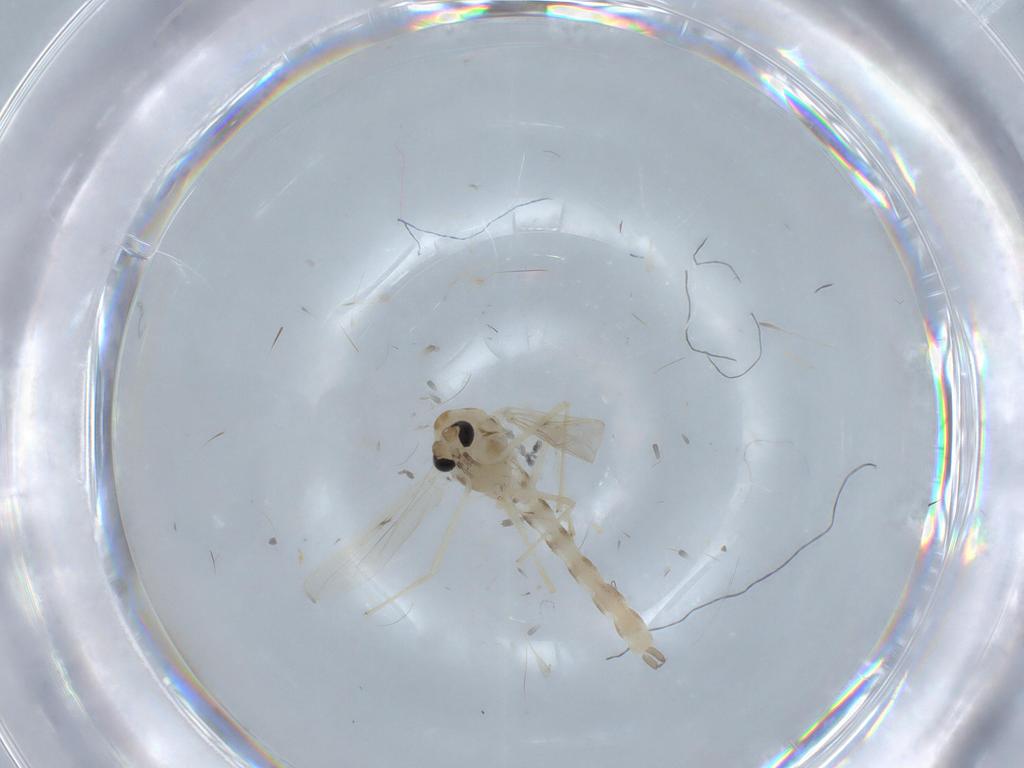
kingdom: Animalia
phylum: Arthropoda
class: Insecta
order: Diptera
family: Chironomidae
